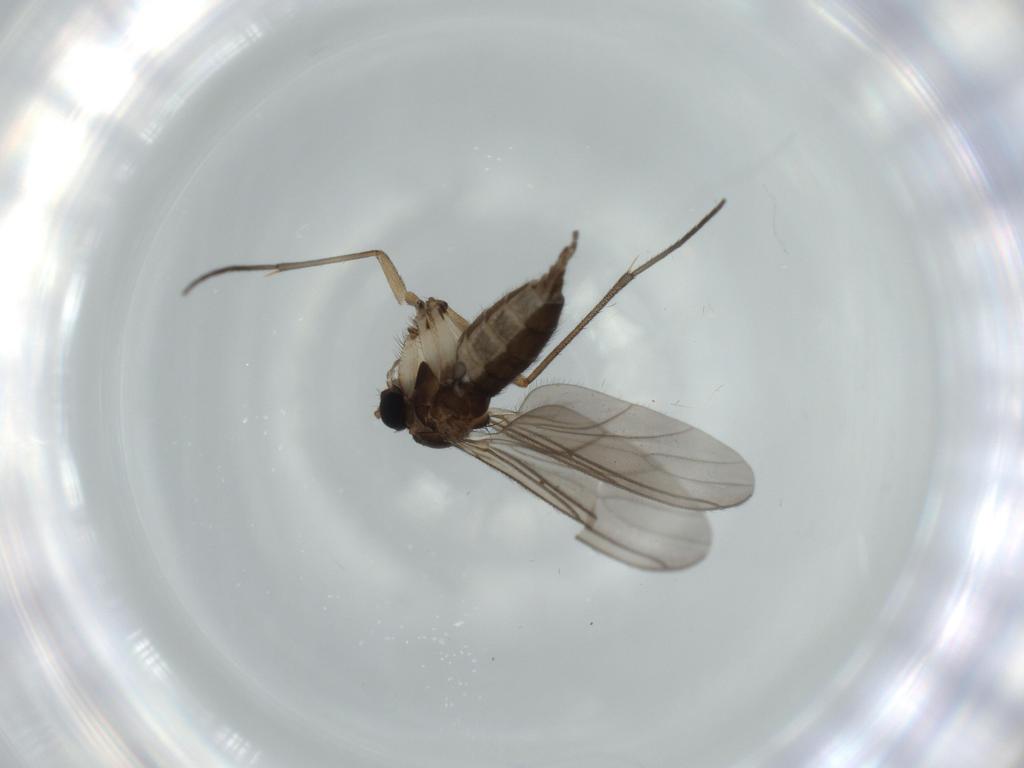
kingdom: Animalia
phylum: Arthropoda
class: Insecta
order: Diptera
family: Sciaridae
